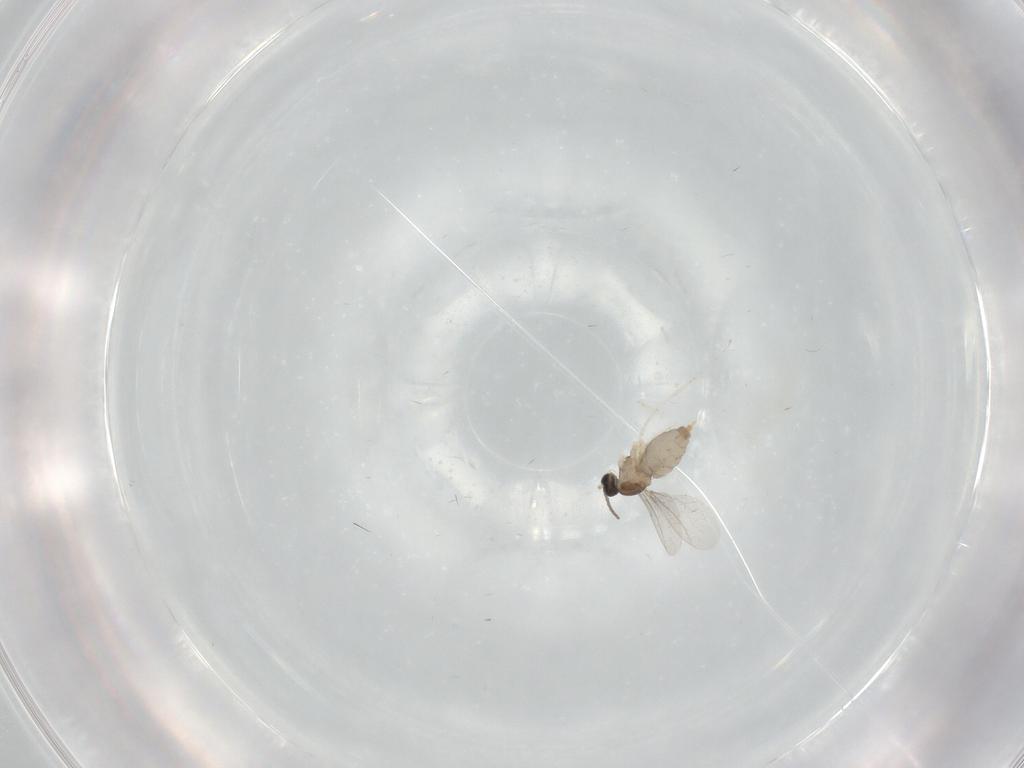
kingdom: Animalia
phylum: Arthropoda
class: Insecta
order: Diptera
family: Cecidomyiidae
